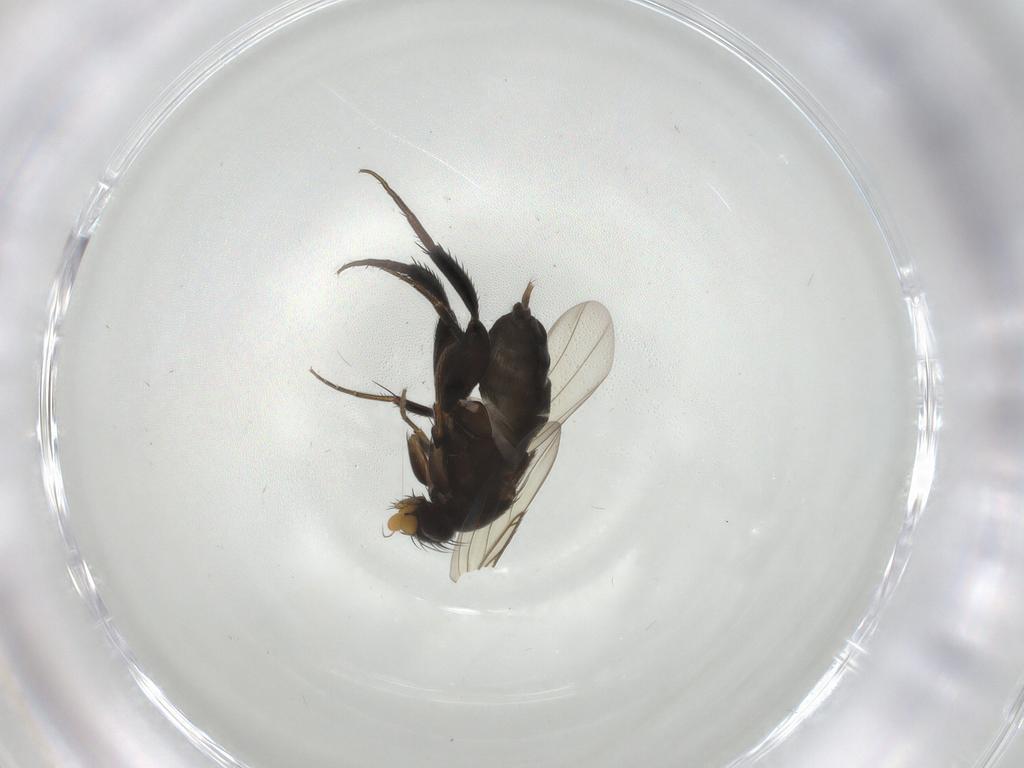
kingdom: Animalia
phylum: Arthropoda
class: Insecta
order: Diptera
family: Phoridae
